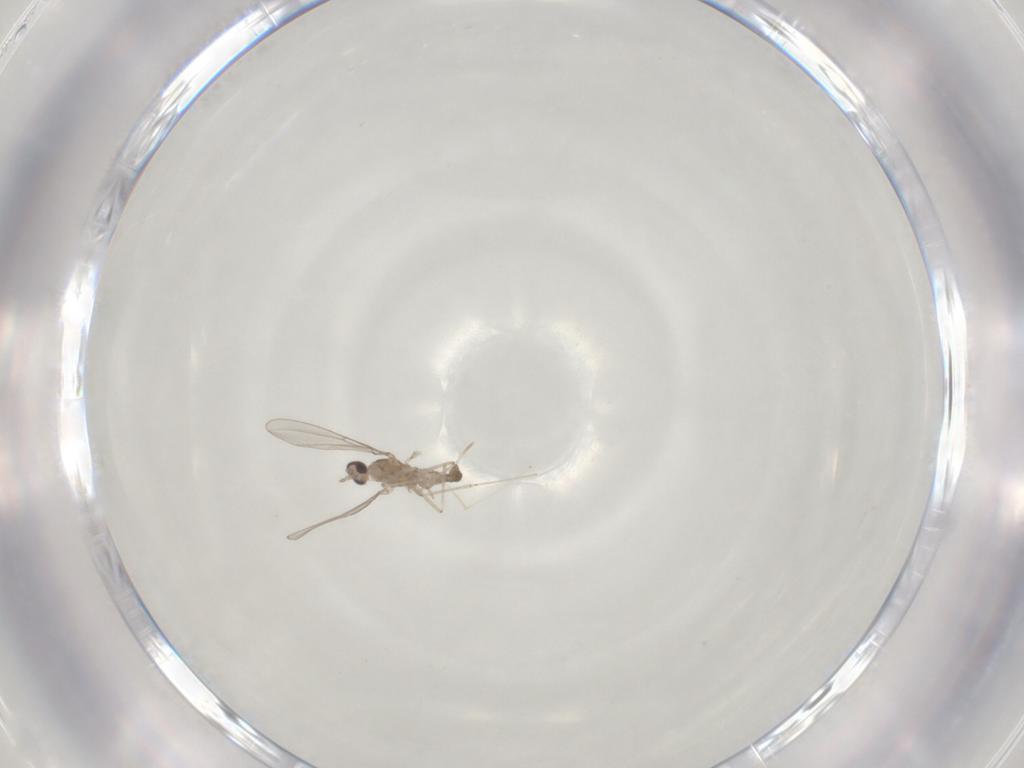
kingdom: Animalia
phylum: Arthropoda
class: Insecta
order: Diptera
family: Cecidomyiidae
